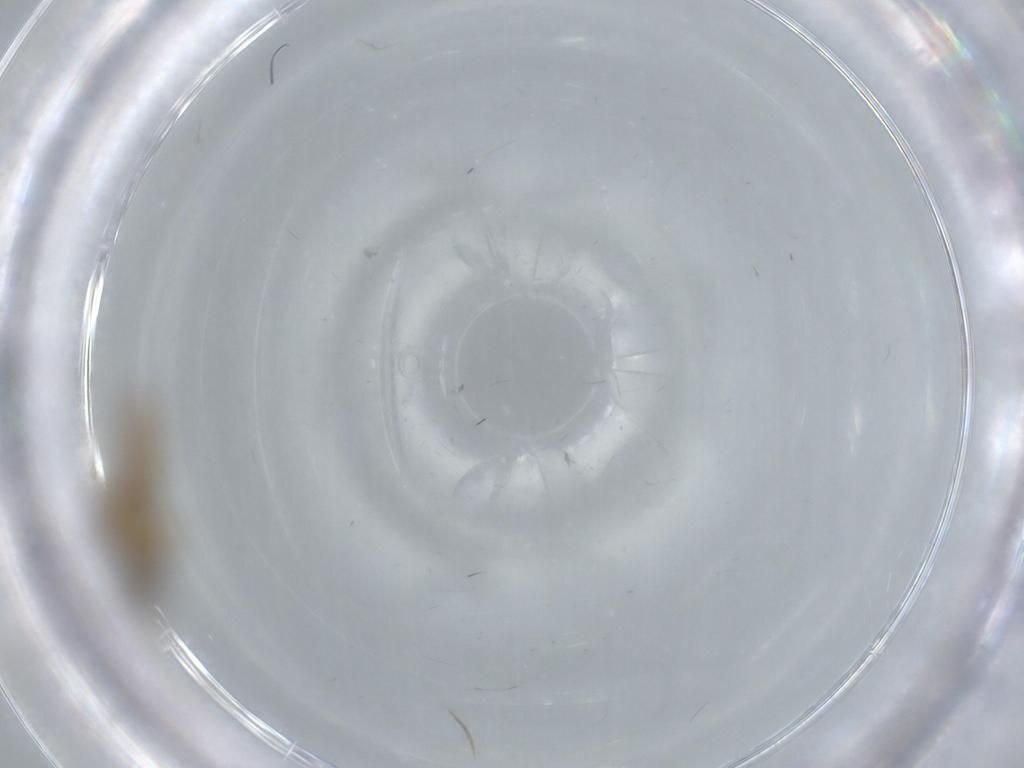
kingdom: Animalia
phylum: Arthropoda
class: Insecta
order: Diptera
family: Cecidomyiidae
